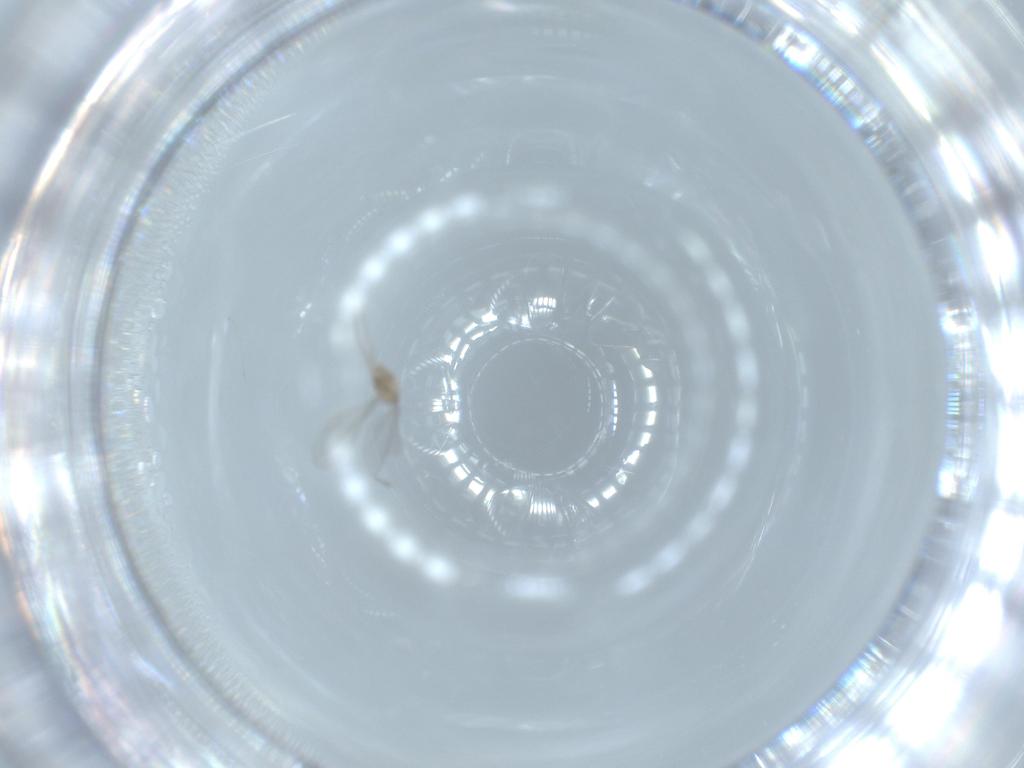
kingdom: Animalia
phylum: Arthropoda
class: Insecta
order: Diptera
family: Cecidomyiidae
